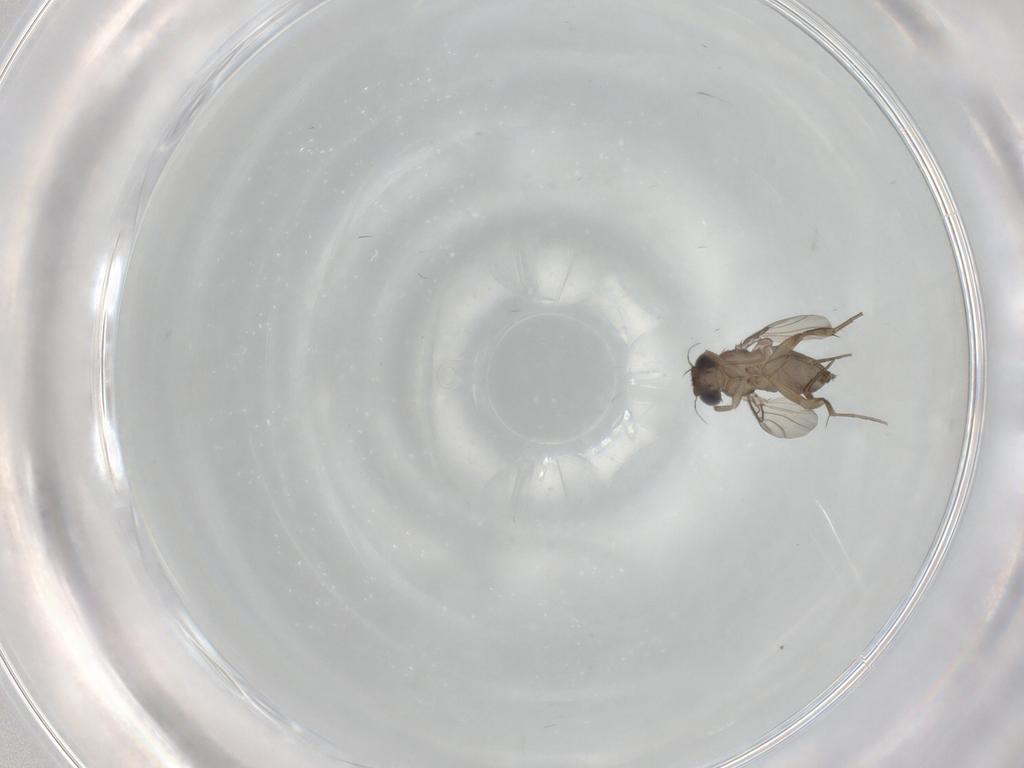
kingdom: Animalia
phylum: Arthropoda
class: Insecta
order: Diptera
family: Phoridae
